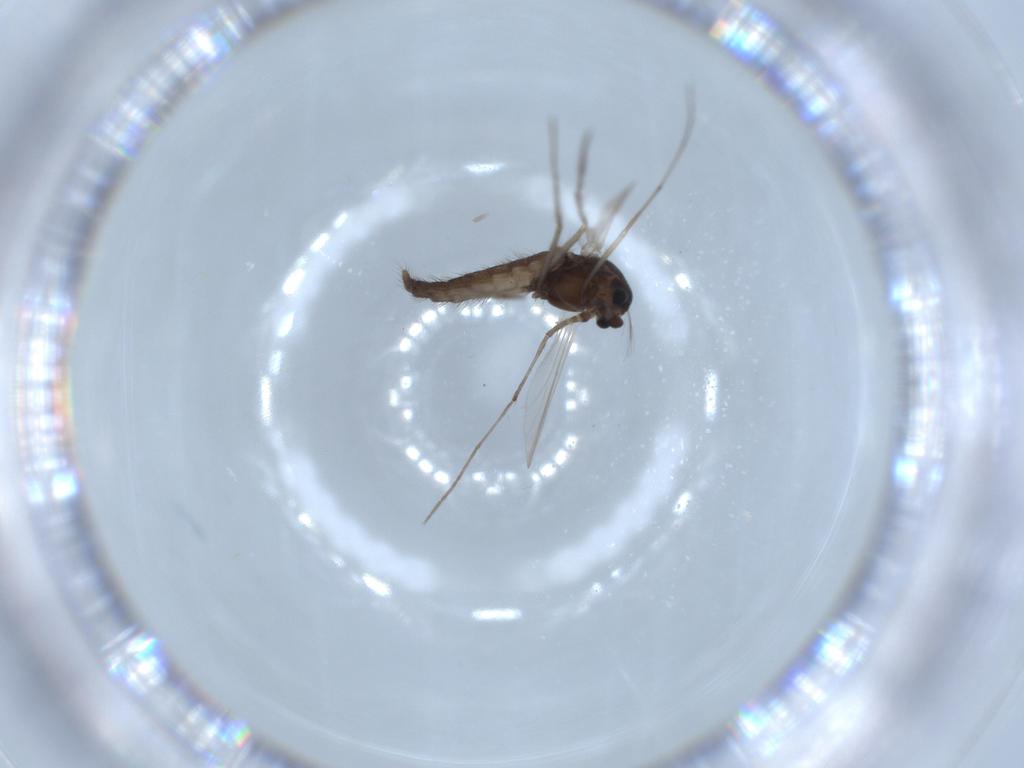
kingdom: Animalia
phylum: Arthropoda
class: Insecta
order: Diptera
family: Chironomidae
